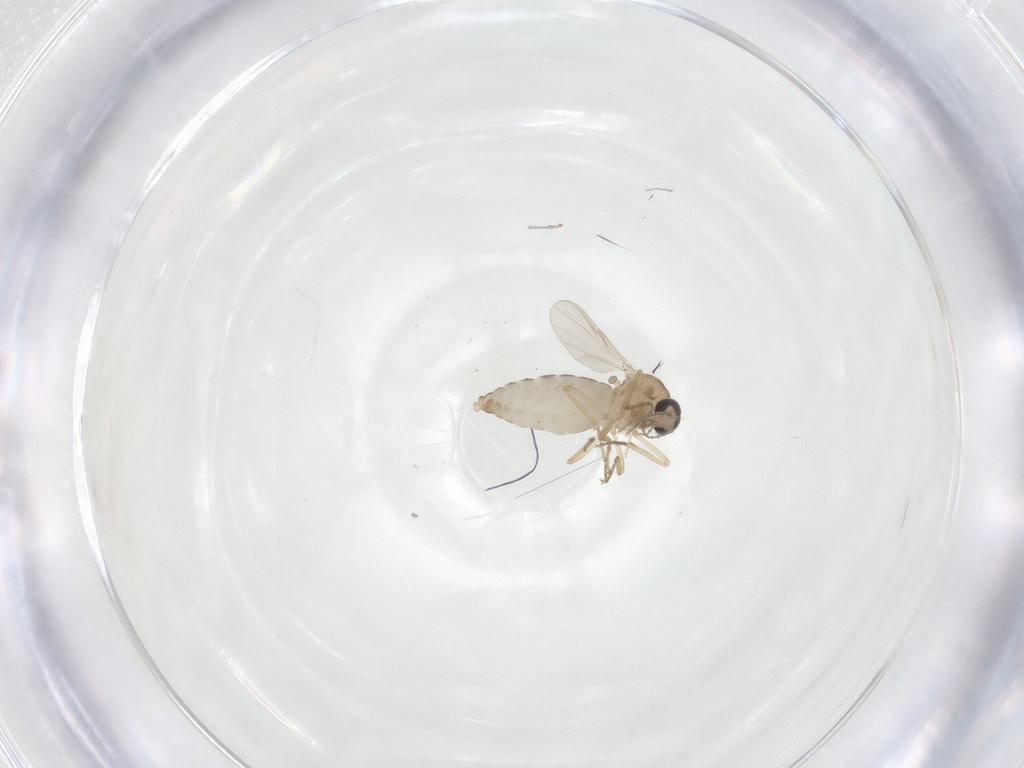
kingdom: Animalia
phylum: Arthropoda
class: Insecta
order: Diptera
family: Ceratopogonidae
